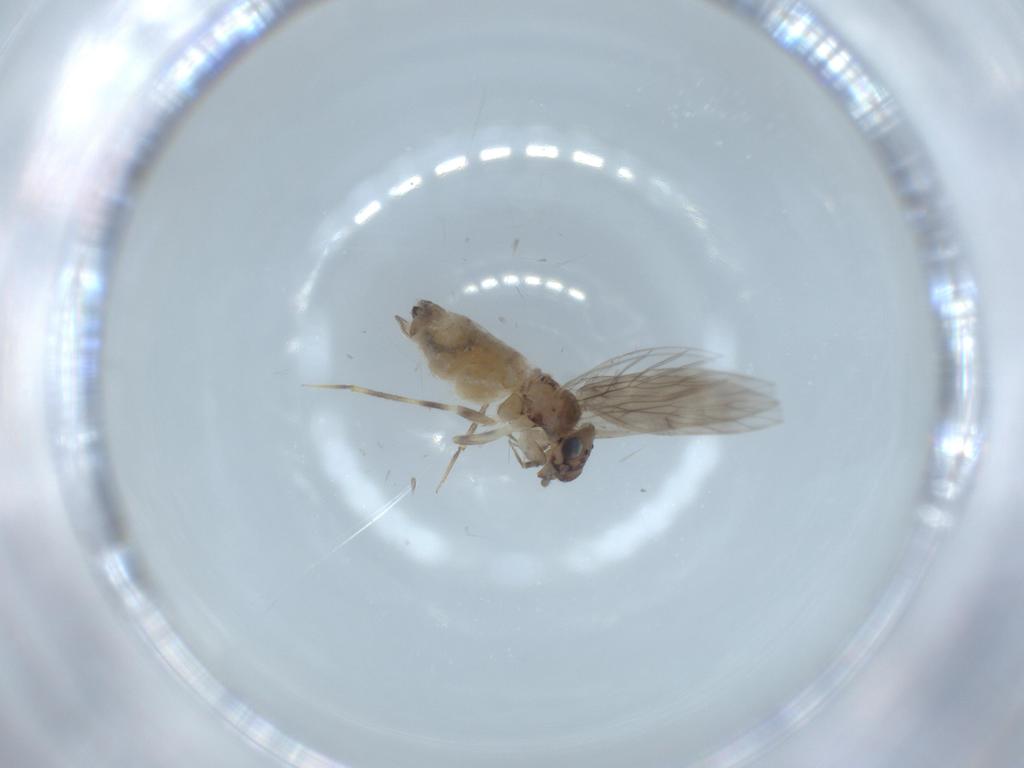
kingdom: Animalia
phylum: Arthropoda
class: Insecta
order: Psocodea
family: Lepidopsocidae
